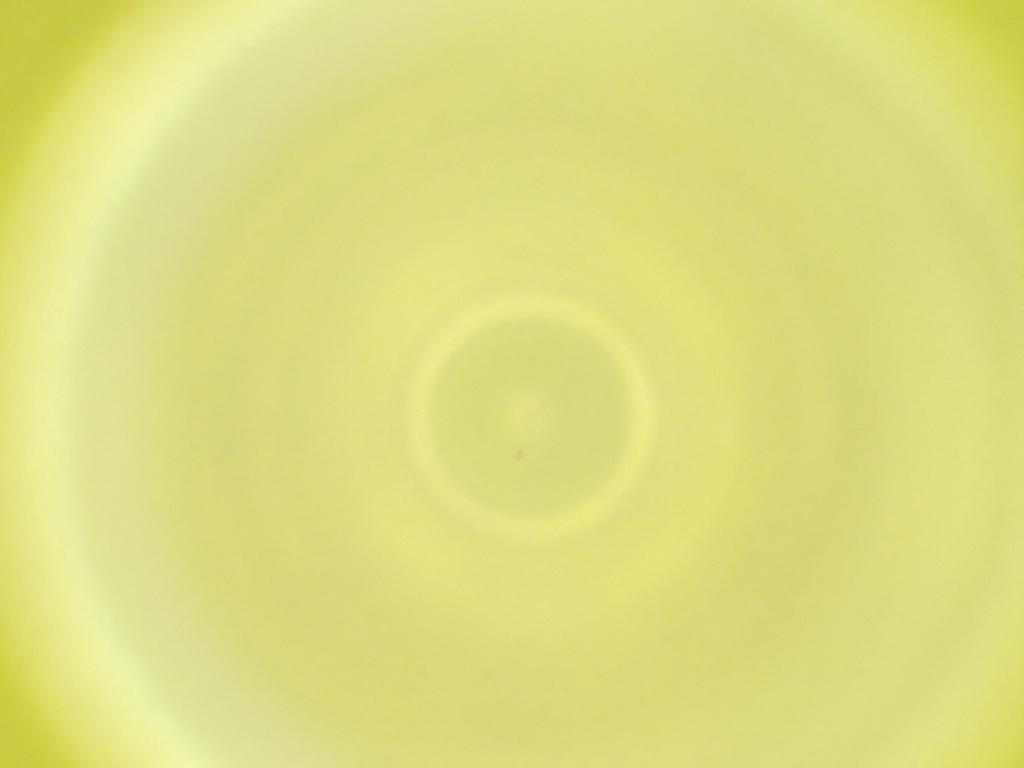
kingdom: Animalia
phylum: Arthropoda
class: Insecta
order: Diptera
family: Cecidomyiidae
